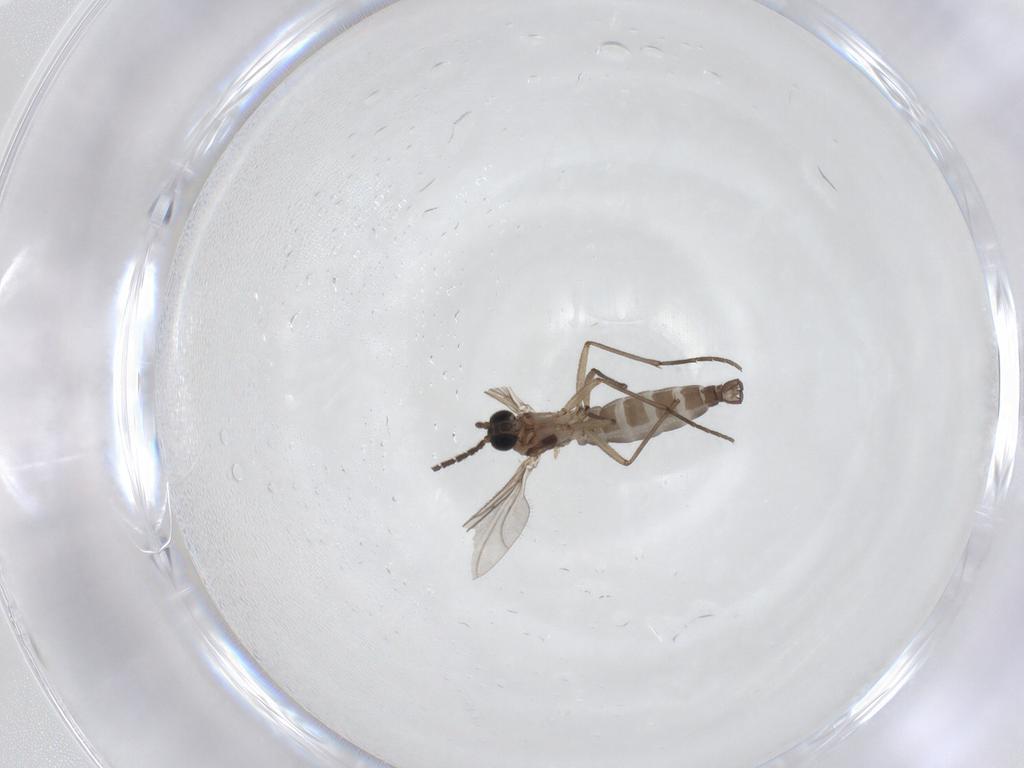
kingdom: Animalia
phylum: Arthropoda
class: Insecta
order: Diptera
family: Sciaridae
